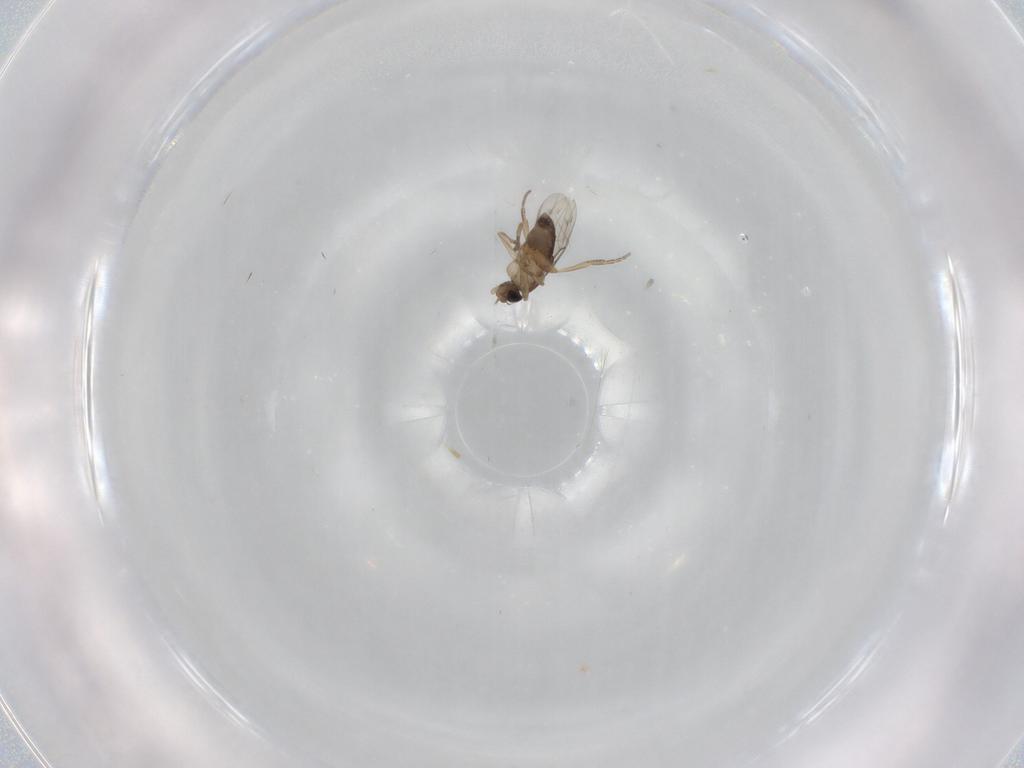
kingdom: Animalia
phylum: Arthropoda
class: Insecta
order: Diptera
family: Phoridae
